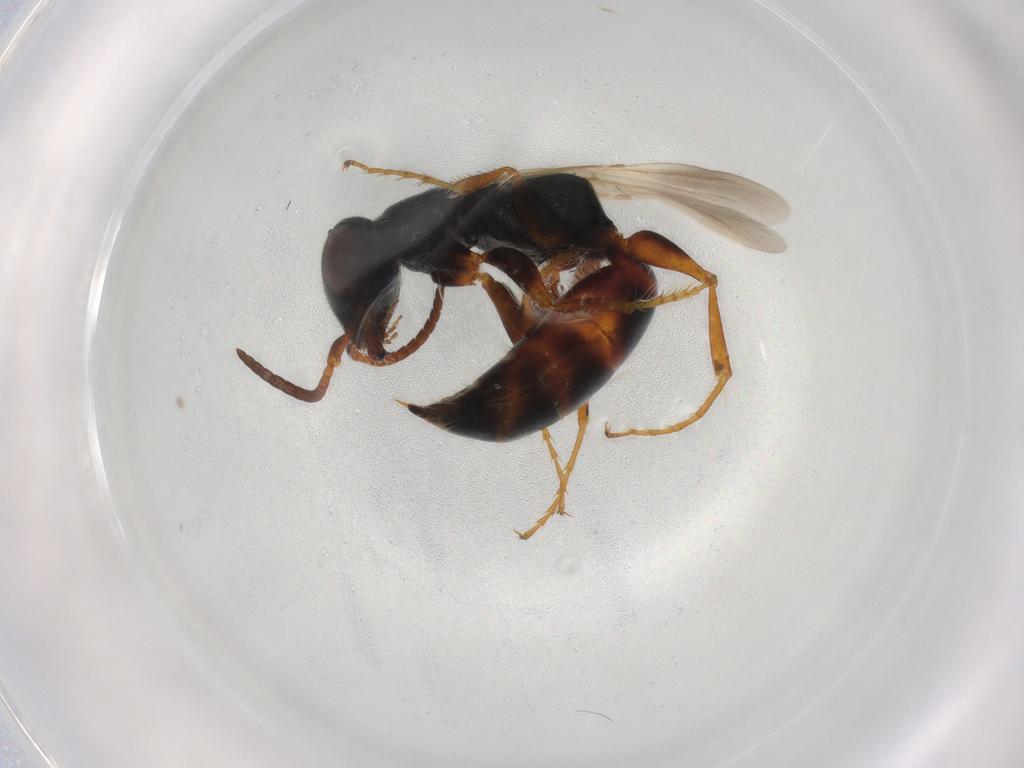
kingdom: Animalia
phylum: Arthropoda
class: Insecta
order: Hymenoptera
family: Bethylidae
